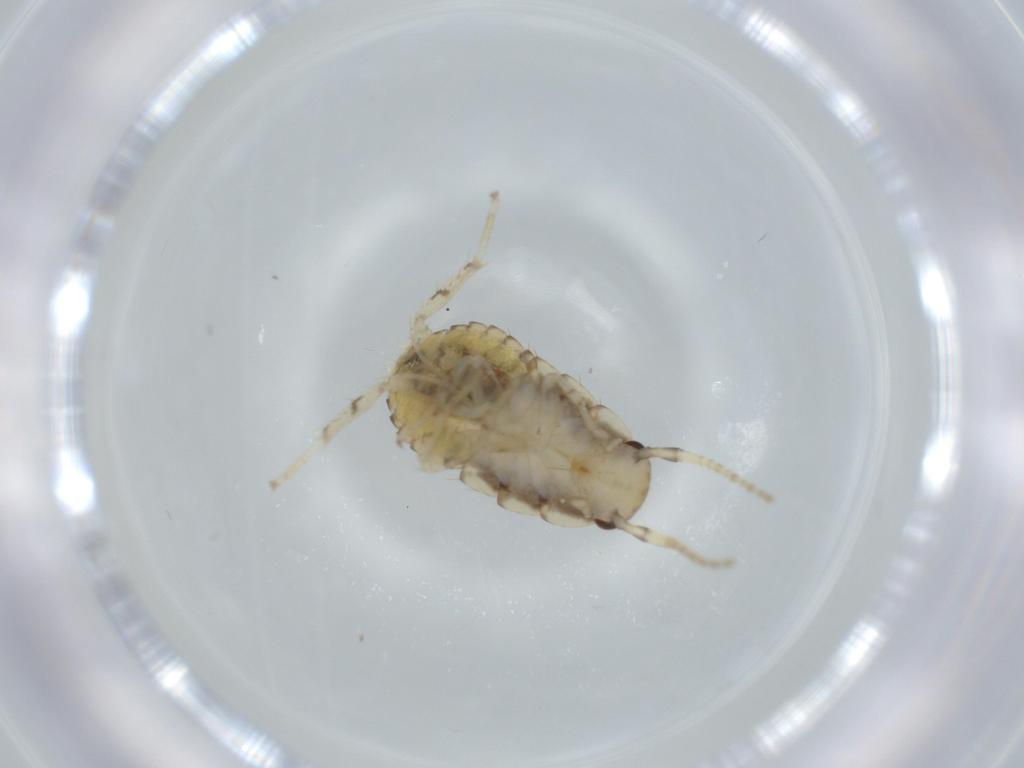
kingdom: Animalia
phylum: Arthropoda
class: Insecta
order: Blattodea
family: Ectobiidae
